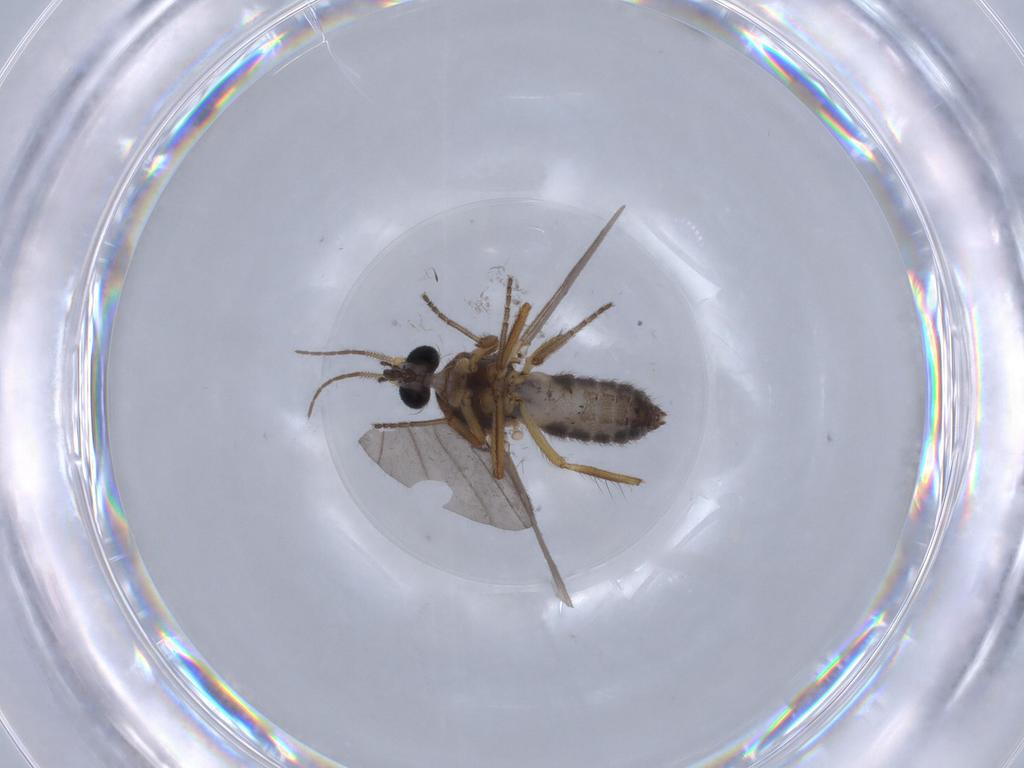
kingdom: Animalia
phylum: Arthropoda
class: Insecta
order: Diptera
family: Ceratopogonidae
